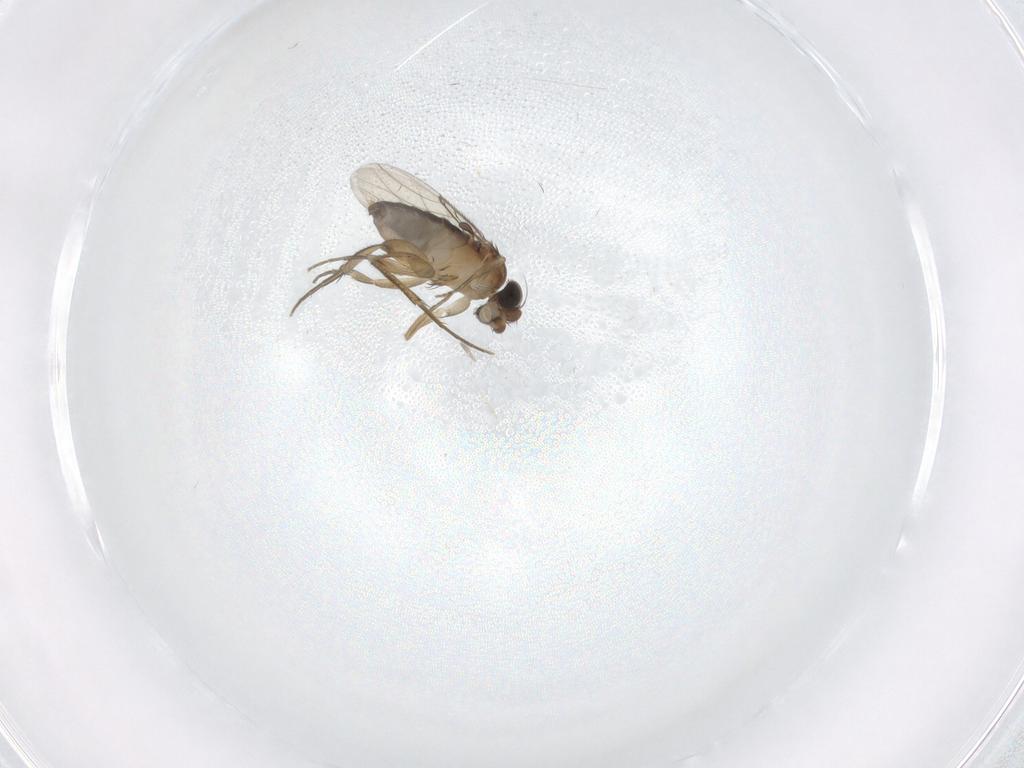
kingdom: Animalia
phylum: Arthropoda
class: Insecta
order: Diptera
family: Phoridae
